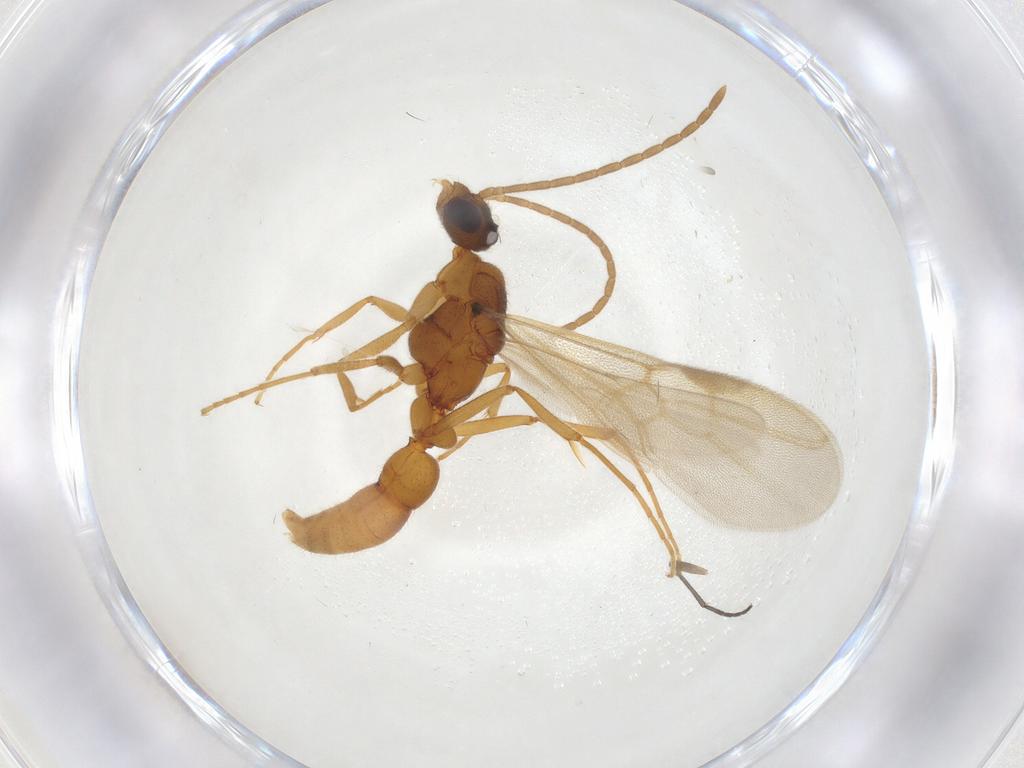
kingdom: Animalia
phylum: Arthropoda
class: Insecta
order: Hymenoptera
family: Formicidae
